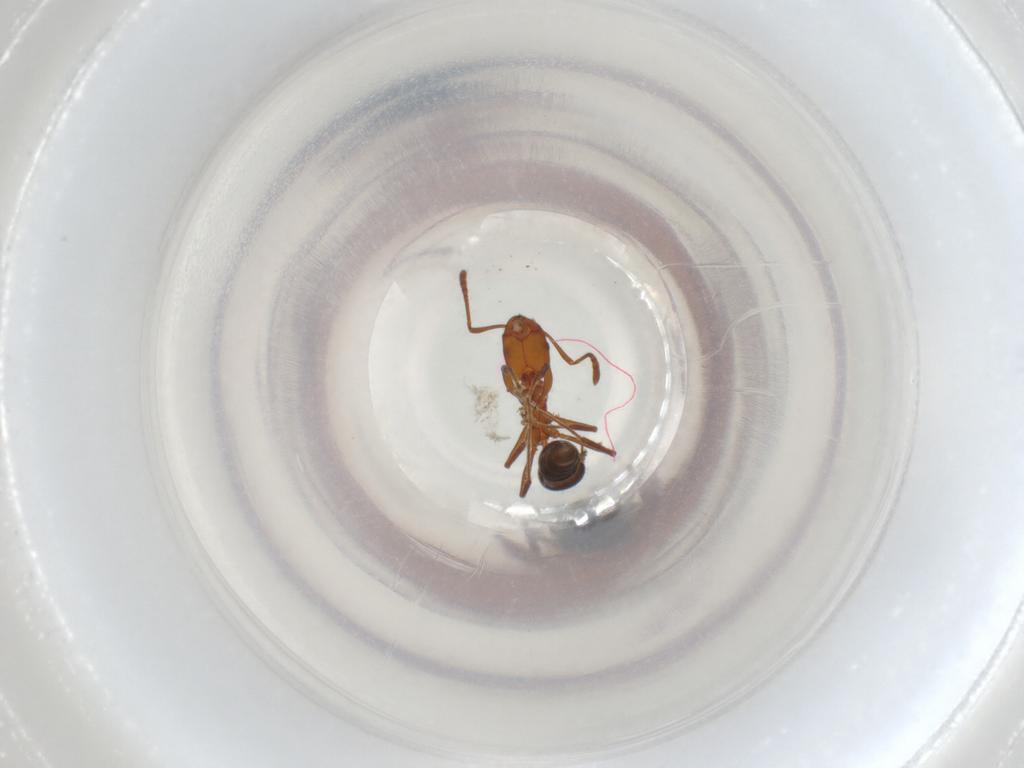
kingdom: Animalia
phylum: Arthropoda
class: Insecta
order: Hymenoptera
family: Formicidae
